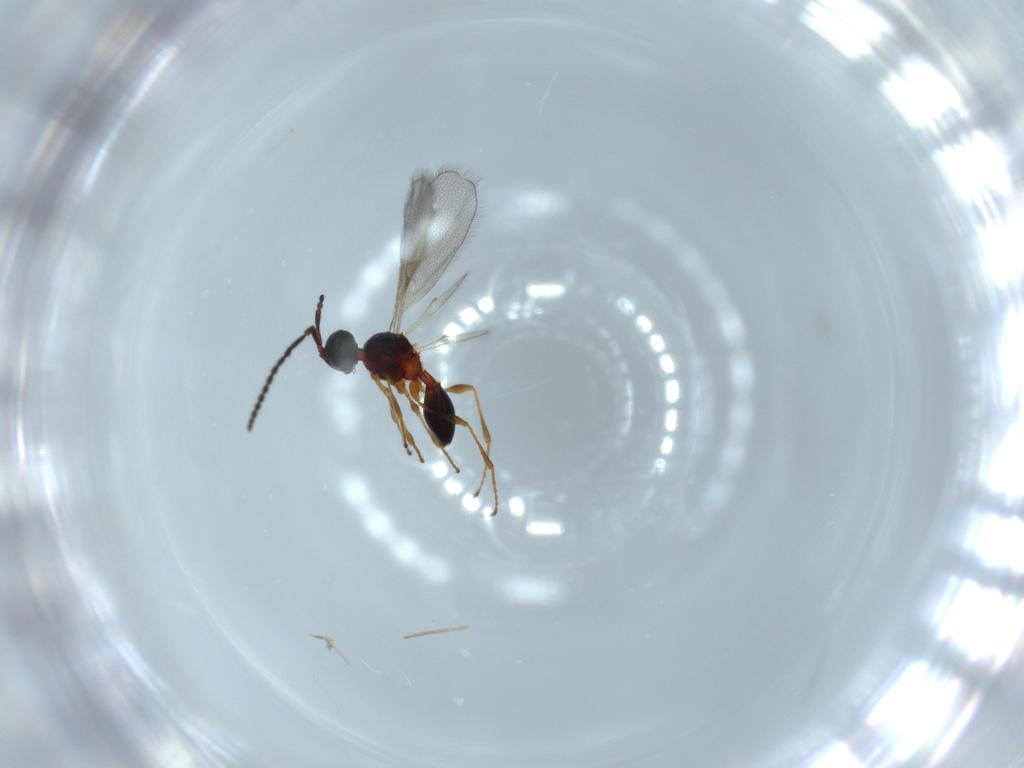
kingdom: Animalia
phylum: Arthropoda
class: Insecta
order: Hymenoptera
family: Diapriidae
